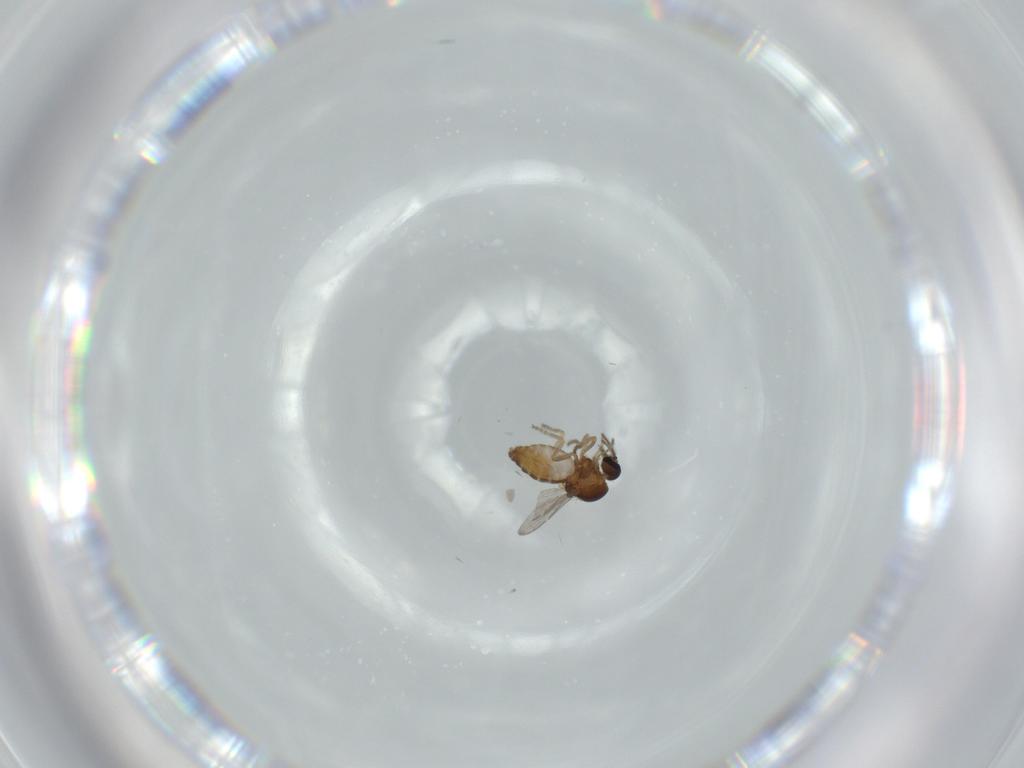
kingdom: Animalia
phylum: Arthropoda
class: Insecta
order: Diptera
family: Ceratopogonidae
